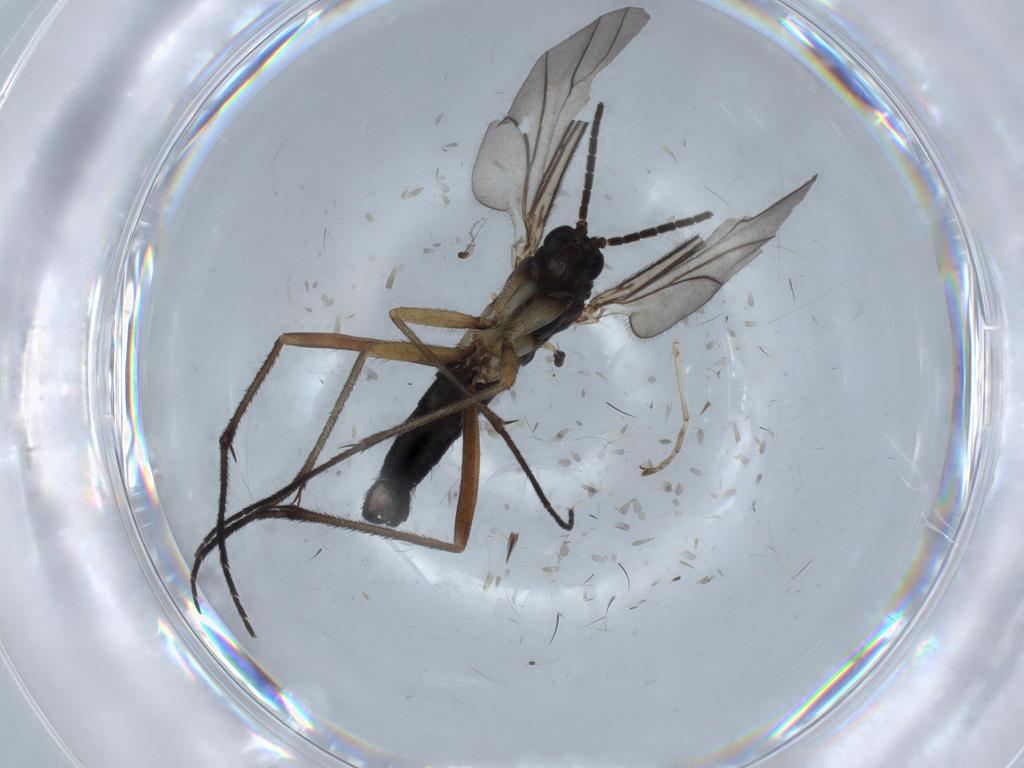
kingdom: Animalia
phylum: Arthropoda
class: Insecta
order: Diptera
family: Sciaridae
